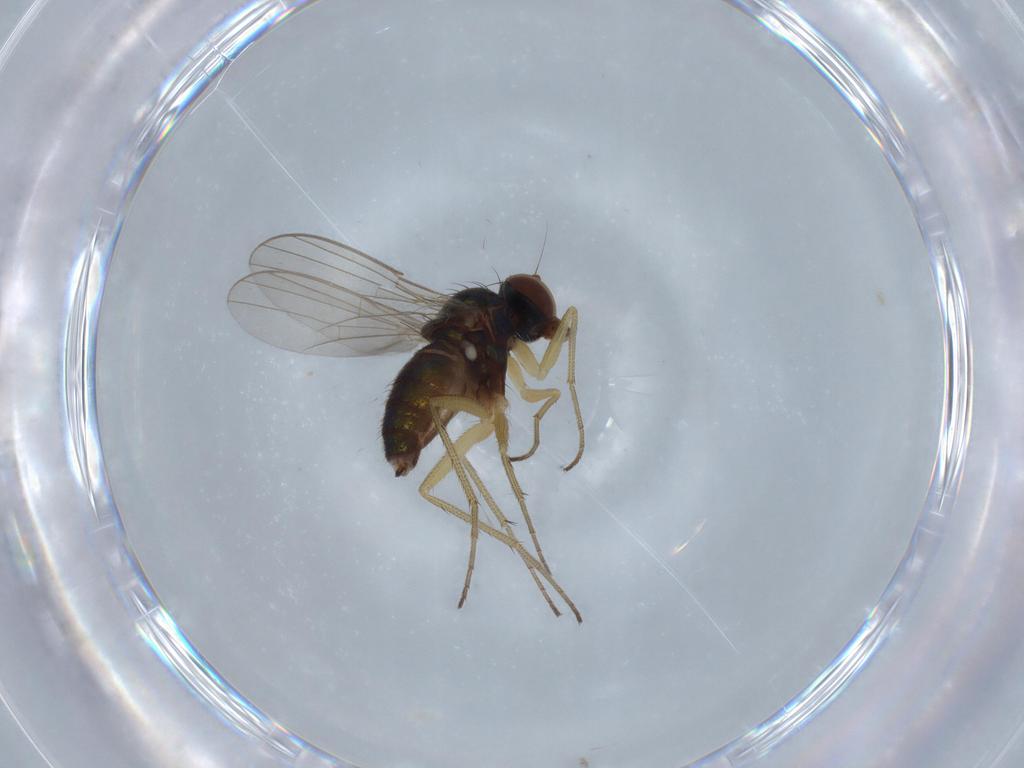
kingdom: Animalia
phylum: Arthropoda
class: Insecta
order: Diptera
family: Dolichopodidae
